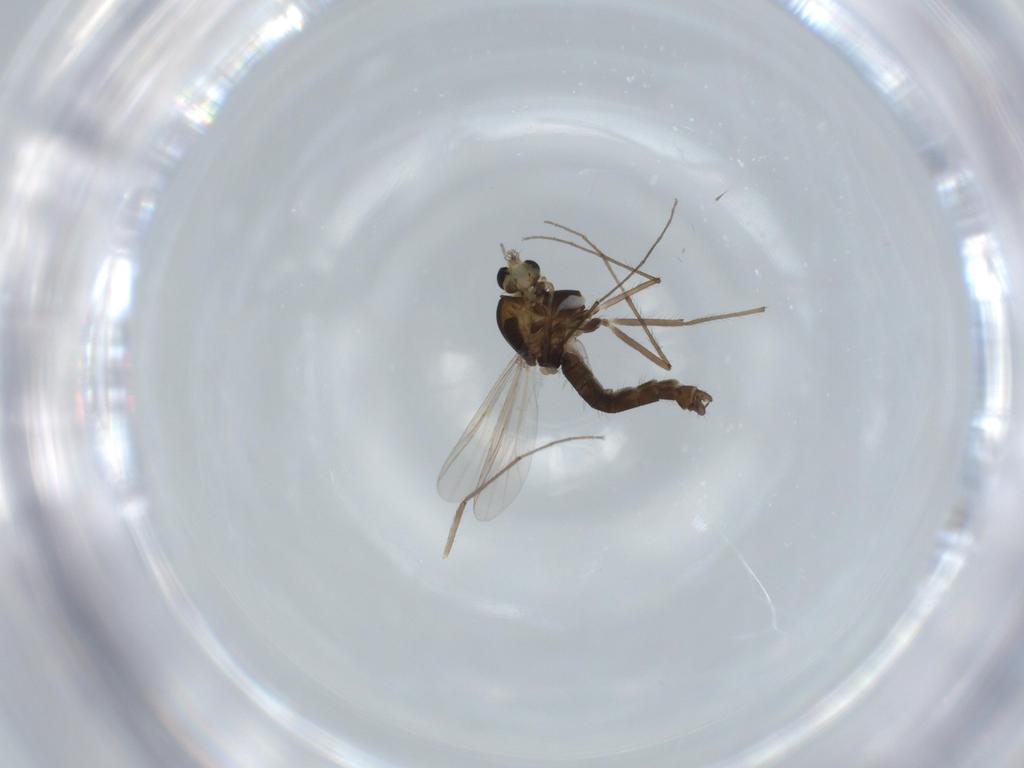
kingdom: Animalia
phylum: Arthropoda
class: Insecta
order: Diptera
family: Chironomidae
